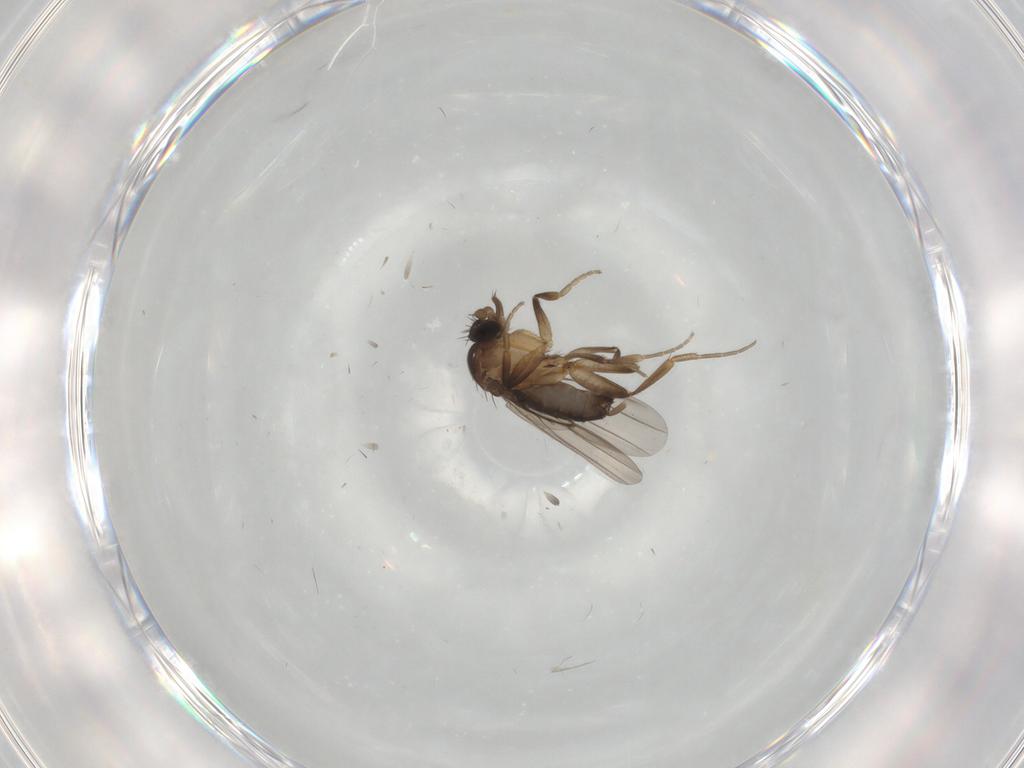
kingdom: Animalia
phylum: Arthropoda
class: Insecta
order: Diptera
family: Phoridae
